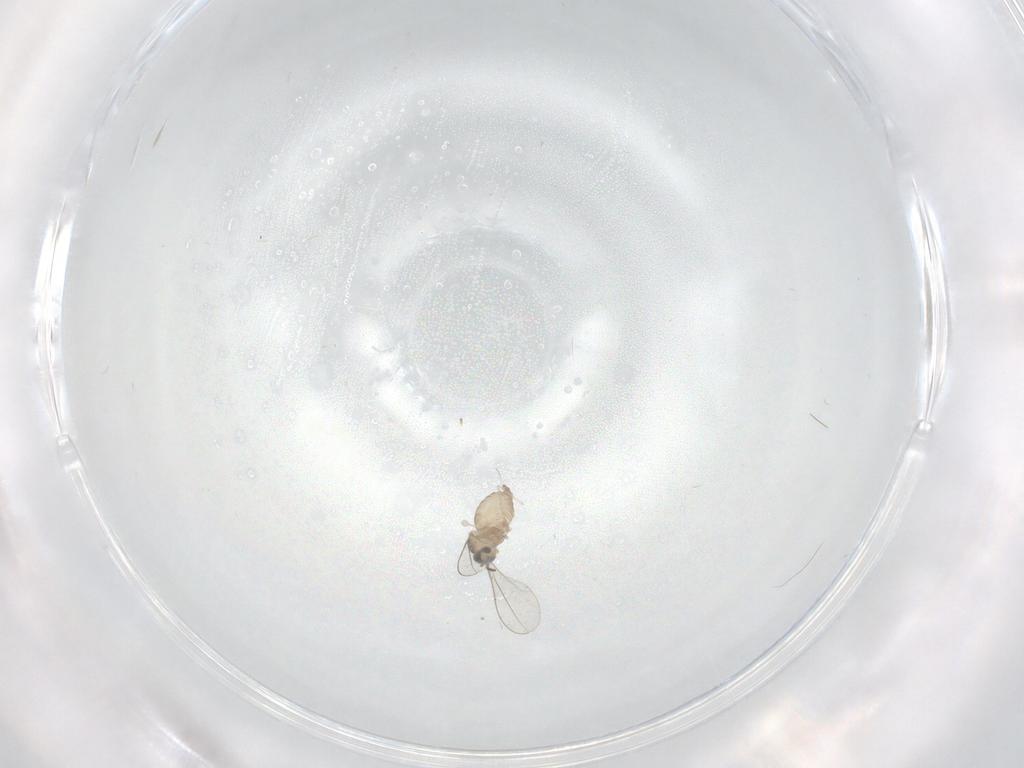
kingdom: Animalia
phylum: Arthropoda
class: Insecta
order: Diptera
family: Cecidomyiidae
